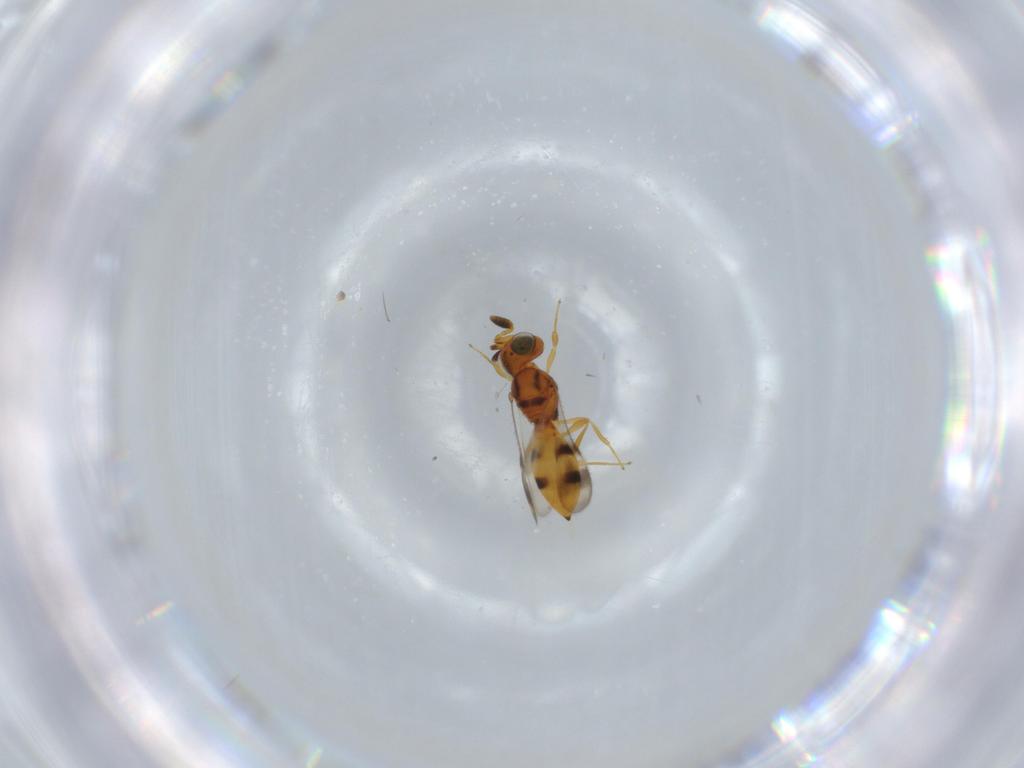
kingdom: Animalia
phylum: Arthropoda
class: Insecta
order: Hymenoptera
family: Scelionidae
